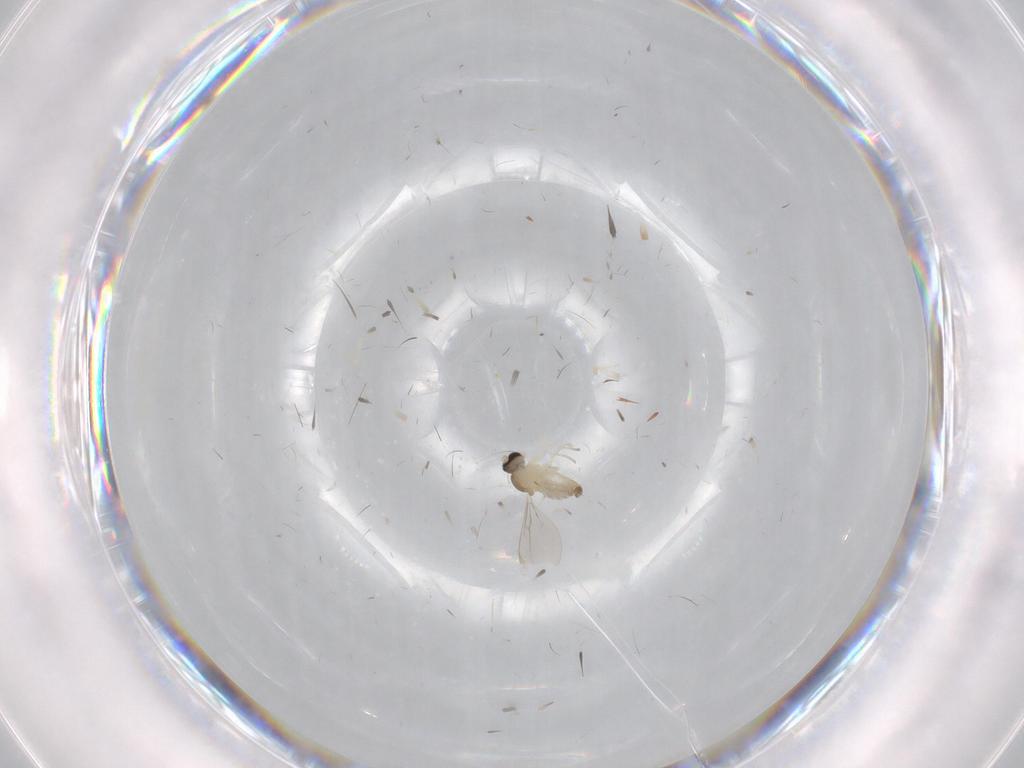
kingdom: Animalia
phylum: Arthropoda
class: Insecta
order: Diptera
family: Cecidomyiidae
